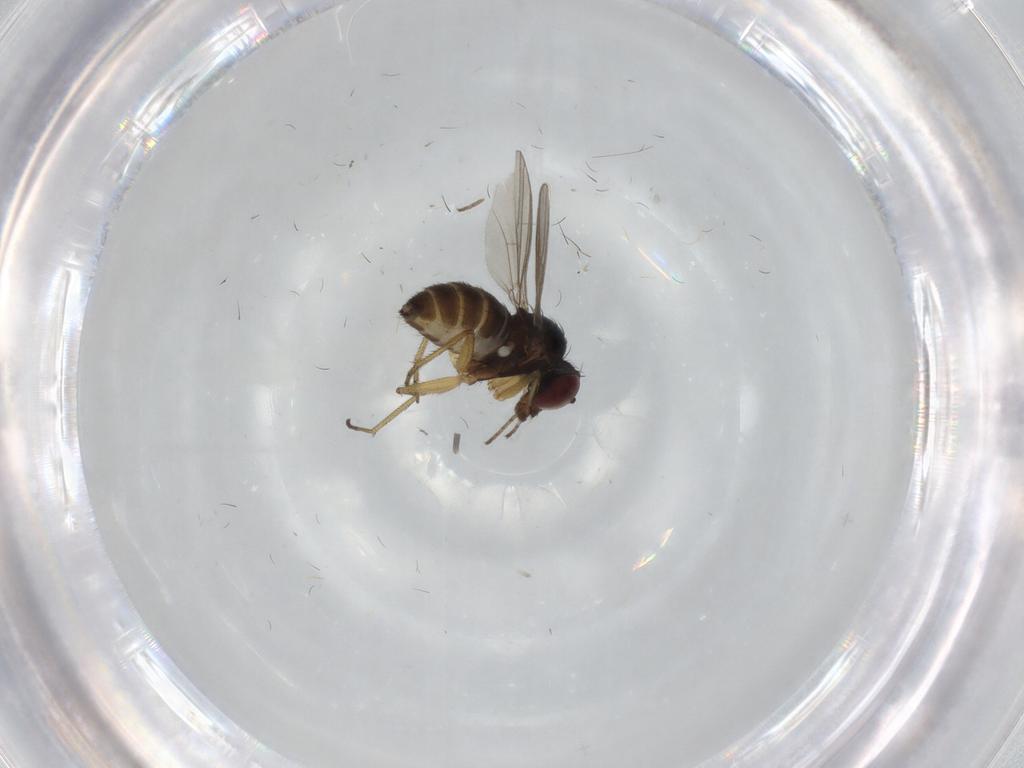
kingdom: Animalia
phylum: Arthropoda
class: Insecta
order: Diptera
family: Dolichopodidae
